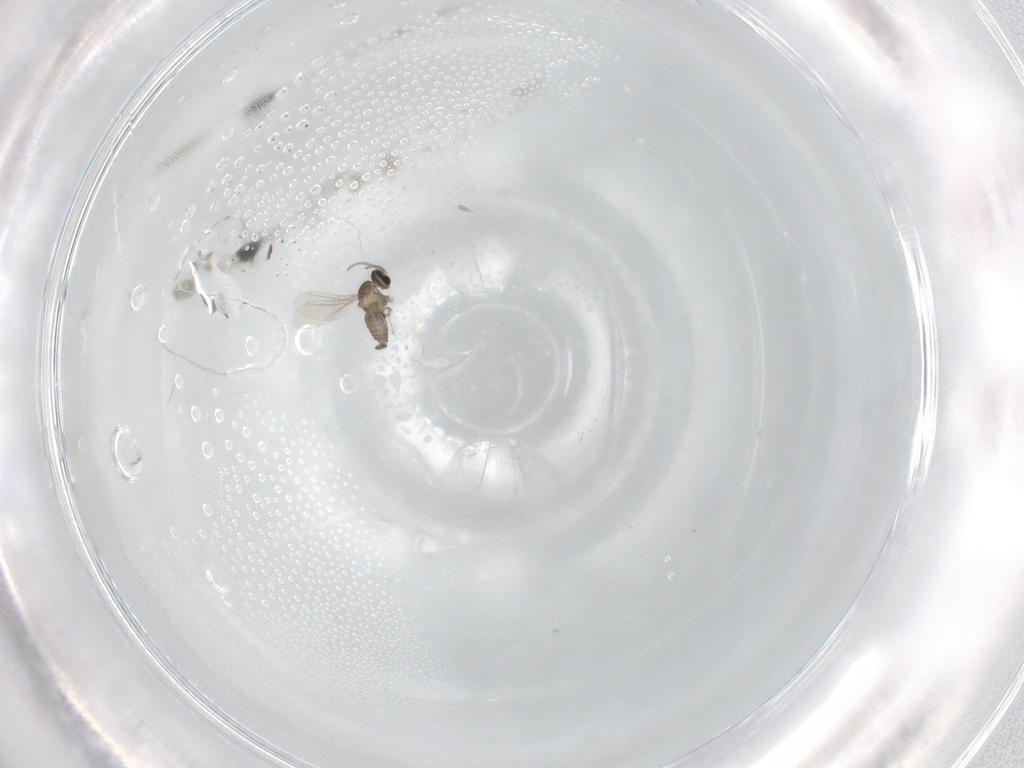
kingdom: Animalia
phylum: Arthropoda
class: Insecta
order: Diptera
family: Cecidomyiidae
